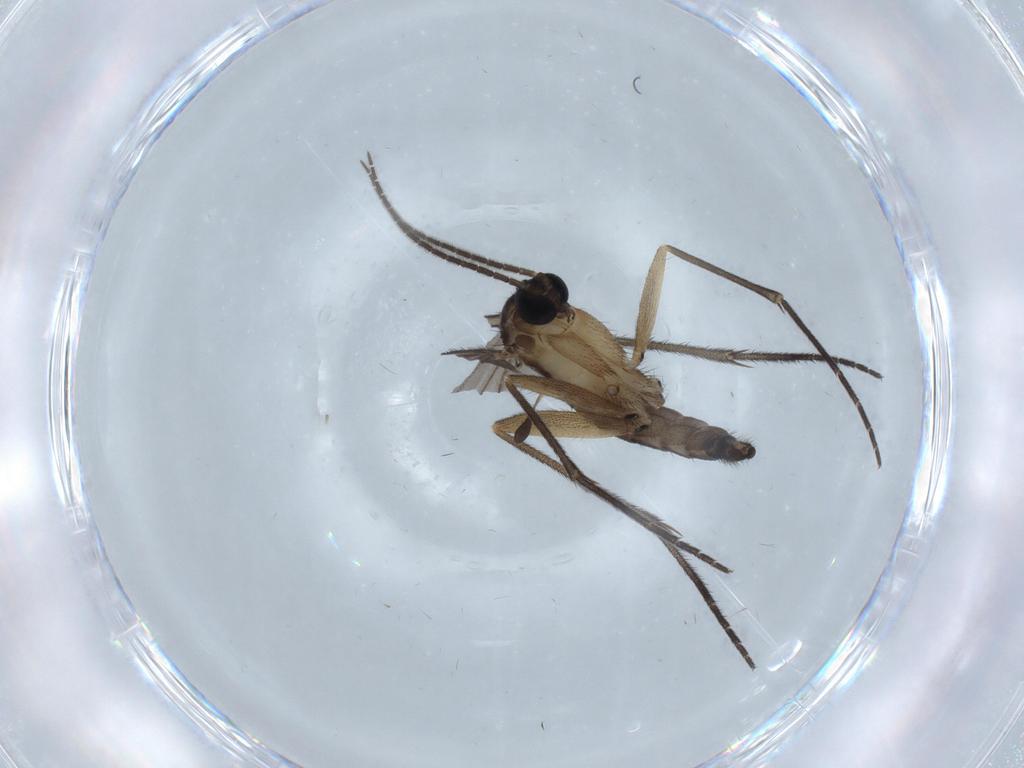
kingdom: Animalia
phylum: Arthropoda
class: Insecta
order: Diptera
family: Sciaridae
